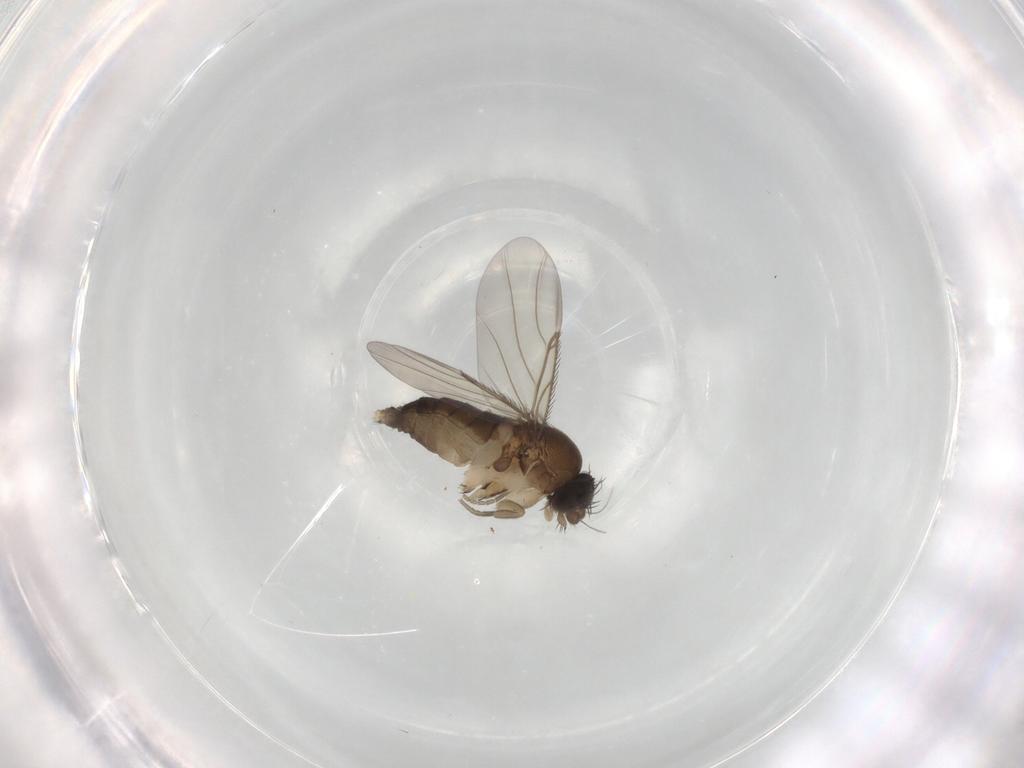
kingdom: Animalia
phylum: Arthropoda
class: Insecta
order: Diptera
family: Phoridae
